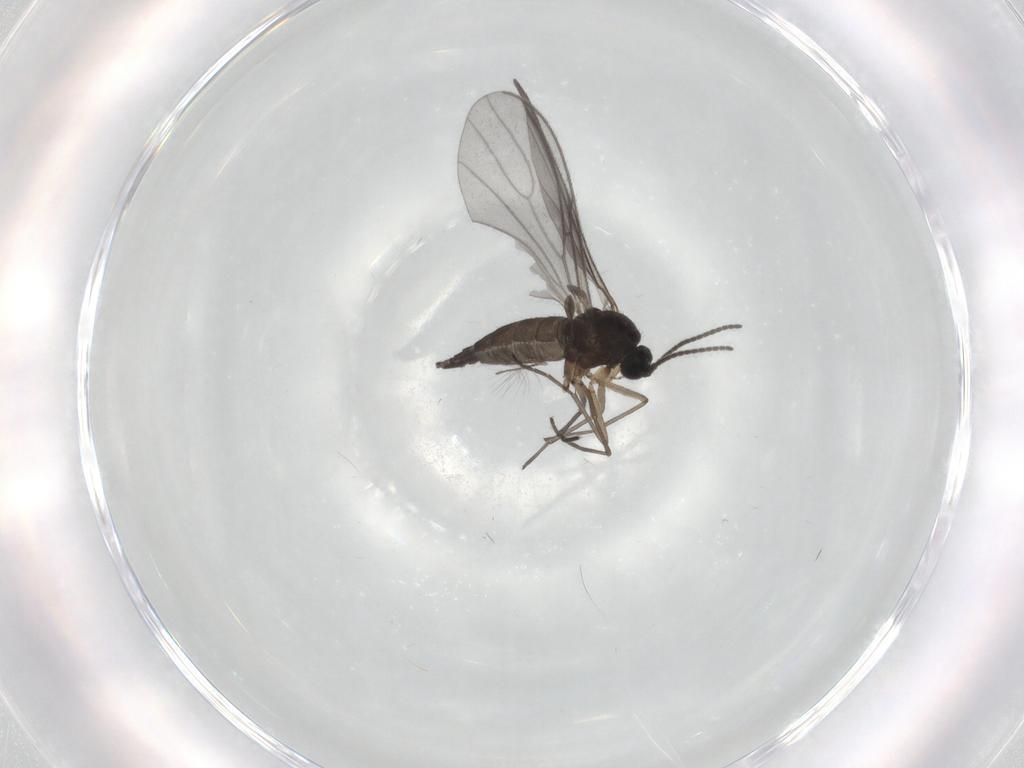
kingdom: Animalia
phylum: Arthropoda
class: Insecta
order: Diptera
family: Sciaridae
